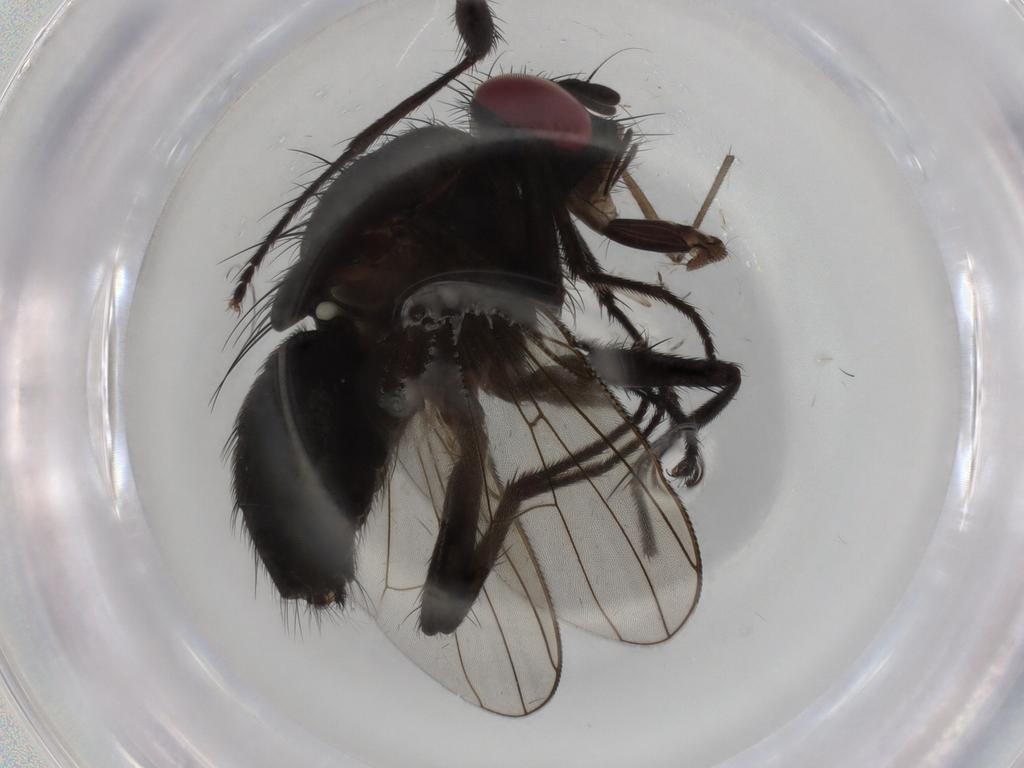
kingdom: Animalia
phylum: Arthropoda
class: Insecta
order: Diptera
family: Muscidae
